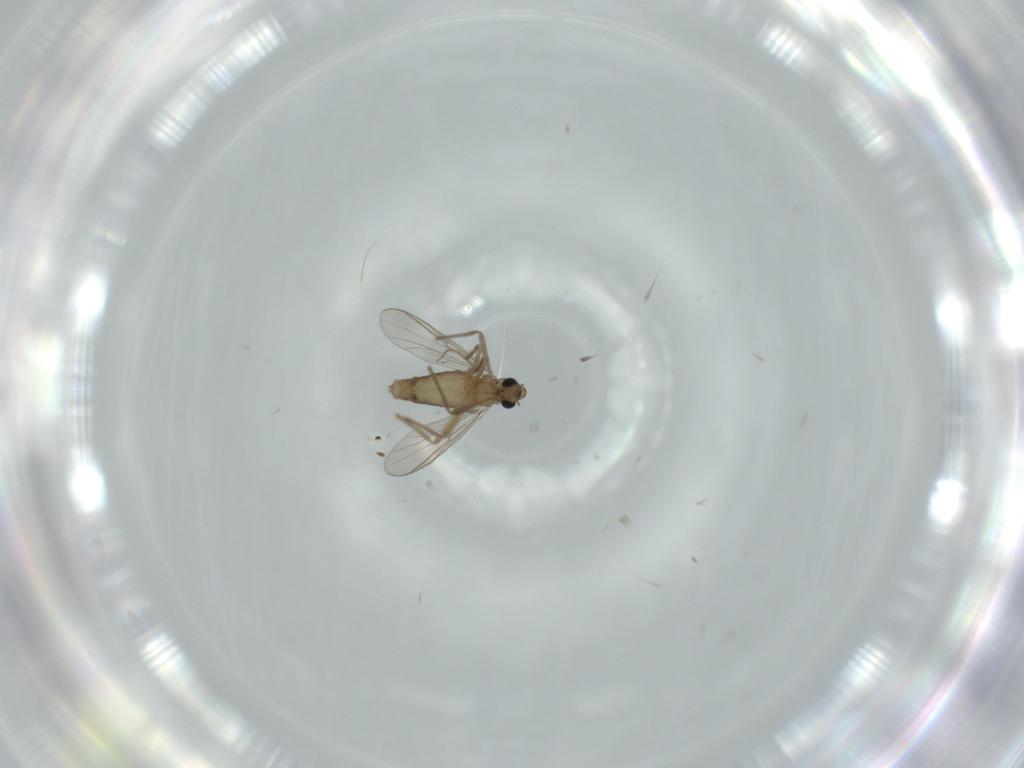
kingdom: Animalia
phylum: Arthropoda
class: Insecta
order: Diptera
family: Chironomidae
